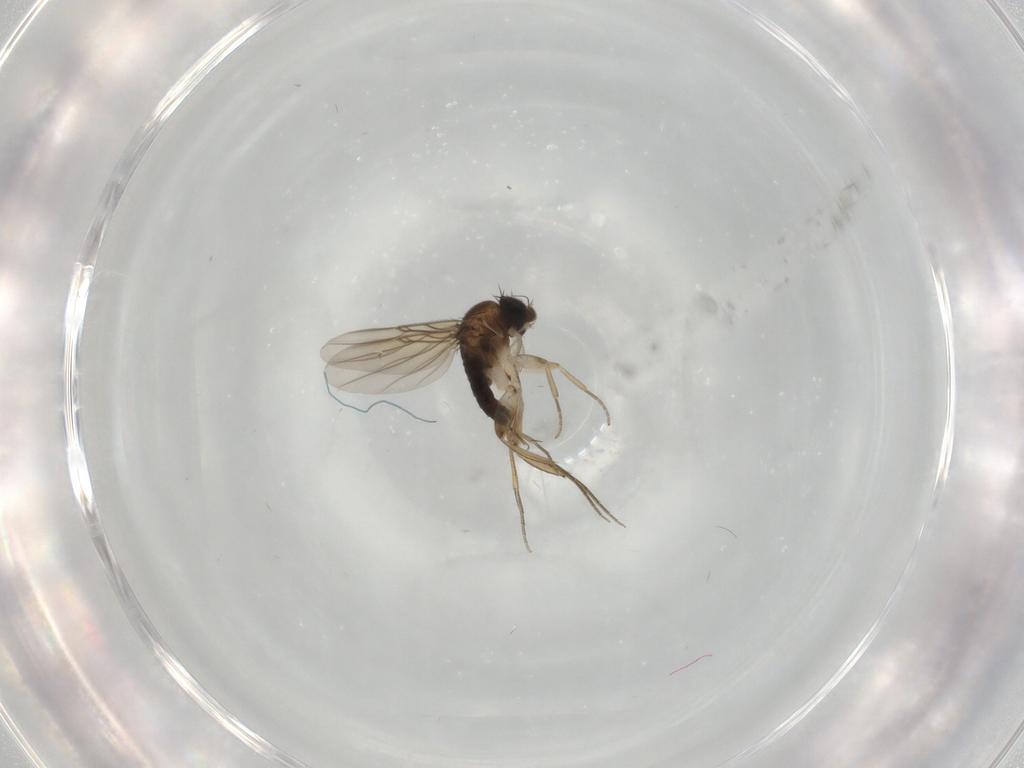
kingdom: Animalia
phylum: Arthropoda
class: Insecta
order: Diptera
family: Phoridae
